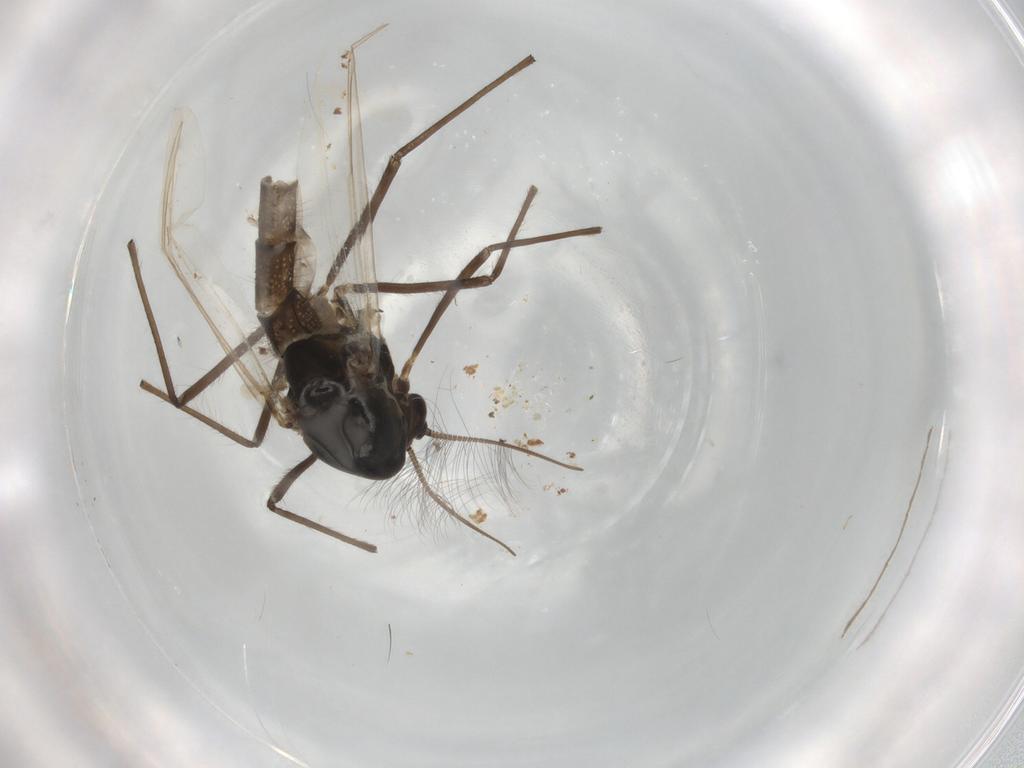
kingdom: Animalia
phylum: Arthropoda
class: Insecta
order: Diptera
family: Chironomidae
